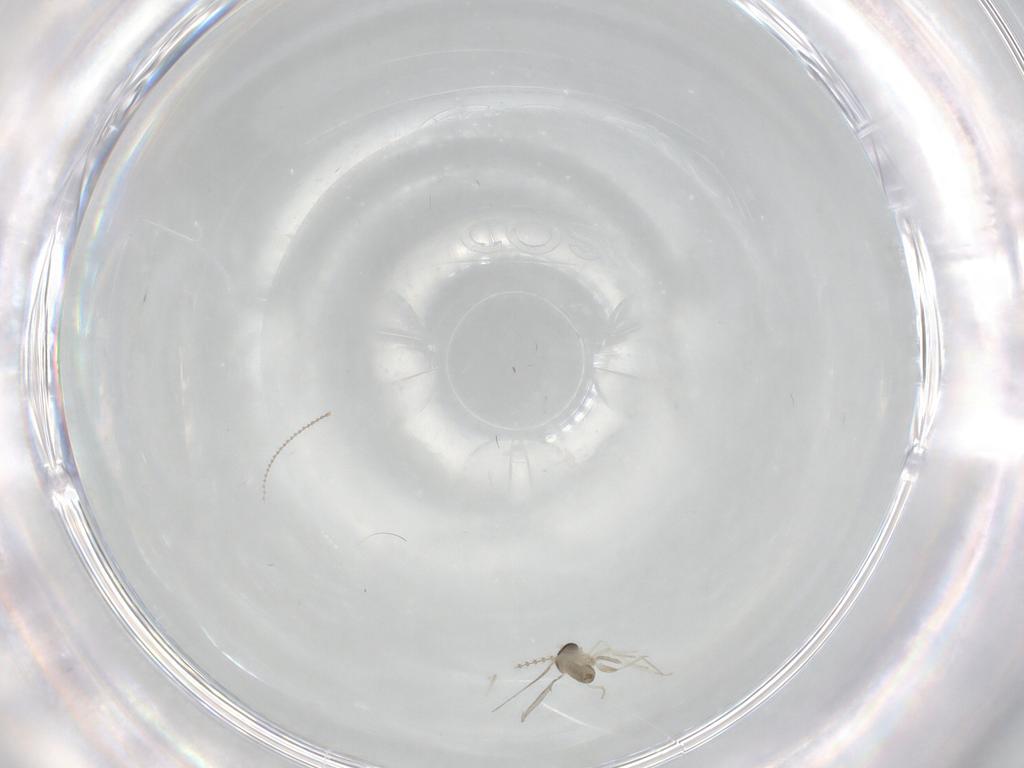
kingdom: Animalia
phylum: Arthropoda
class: Insecta
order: Diptera
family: Cecidomyiidae
